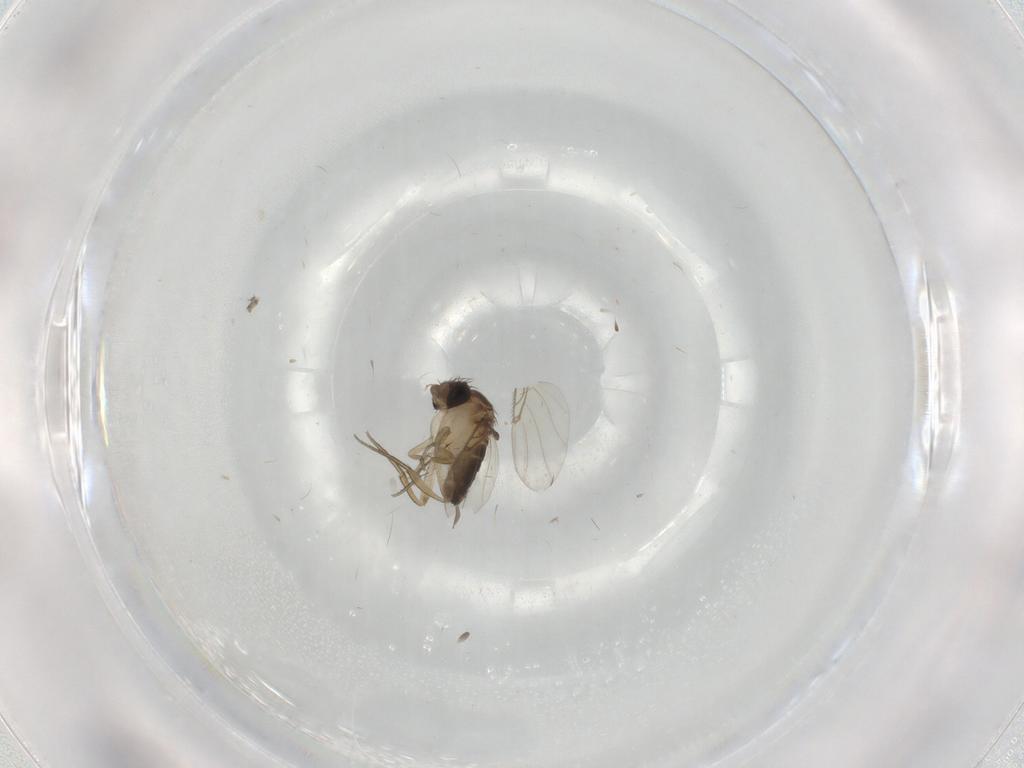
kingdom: Animalia
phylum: Arthropoda
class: Insecta
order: Diptera
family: Cecidomyiidae
